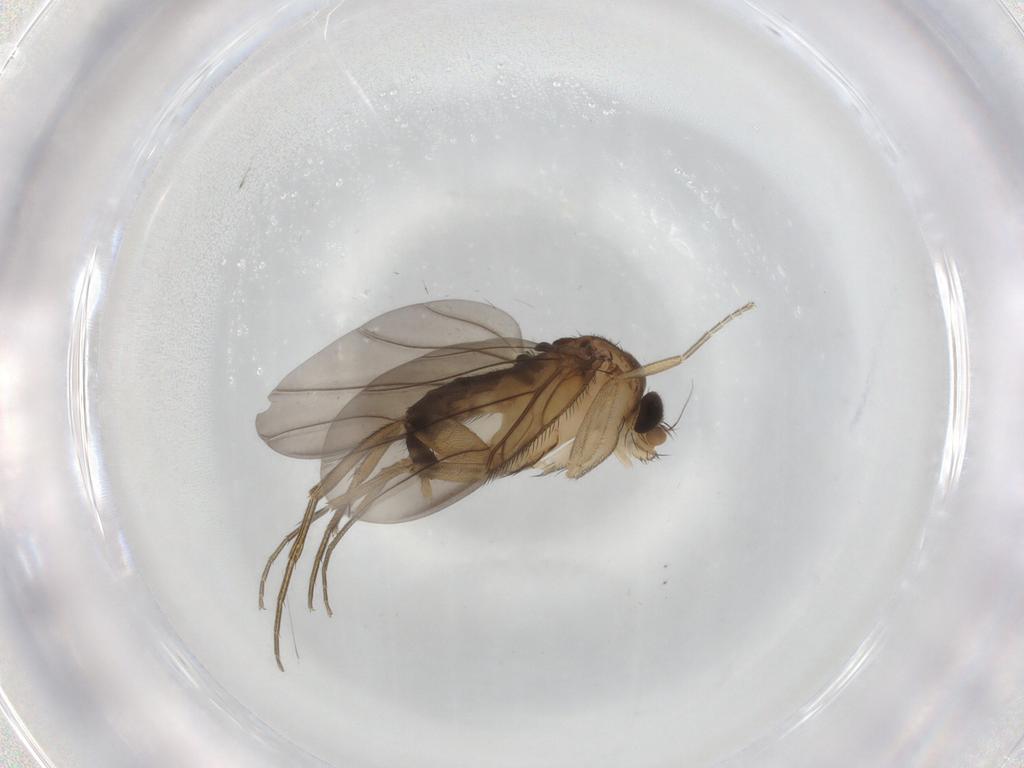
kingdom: Animalia
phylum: Arthropoda
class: Insecta
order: Diptera
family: Phoridae
